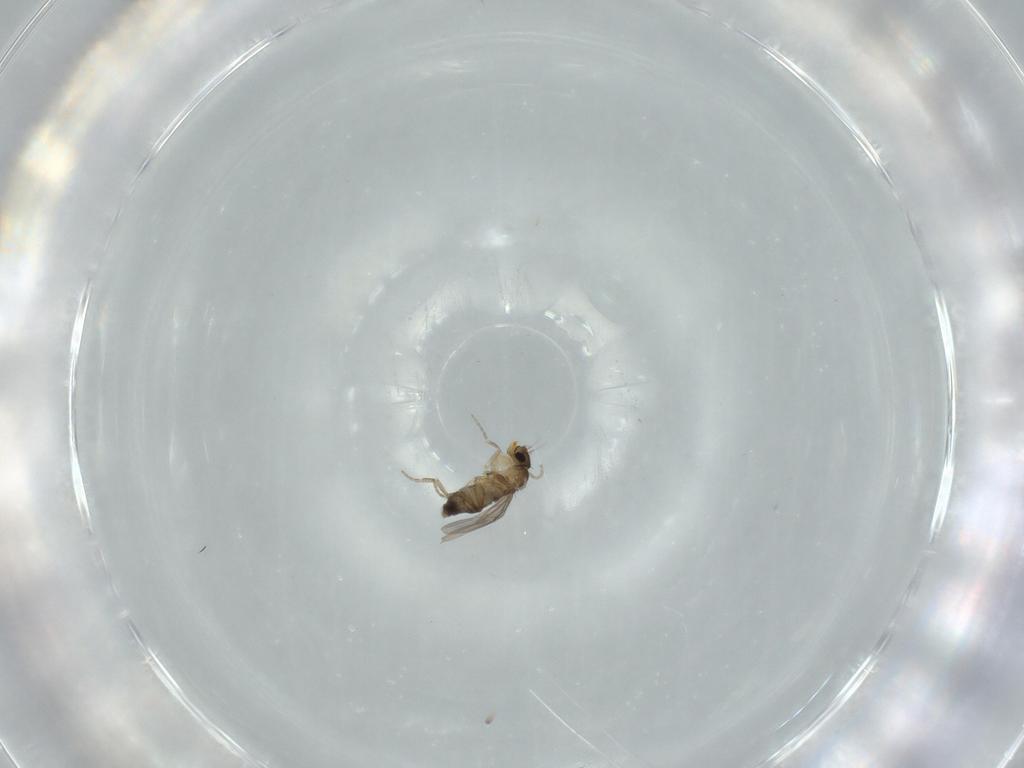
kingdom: Animalia
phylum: Arthropoda
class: Insecta
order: Diptera
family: Phoridae
